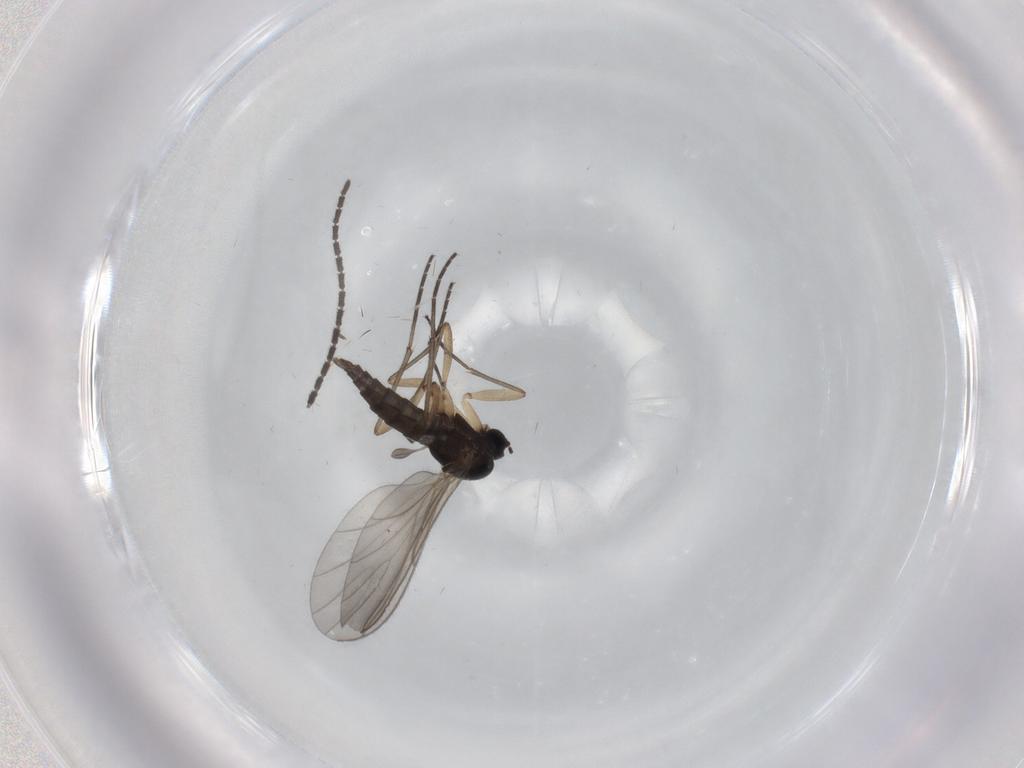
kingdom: Animalia
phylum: Arthropoda
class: Insecta
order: Diptera
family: Sciaridae
